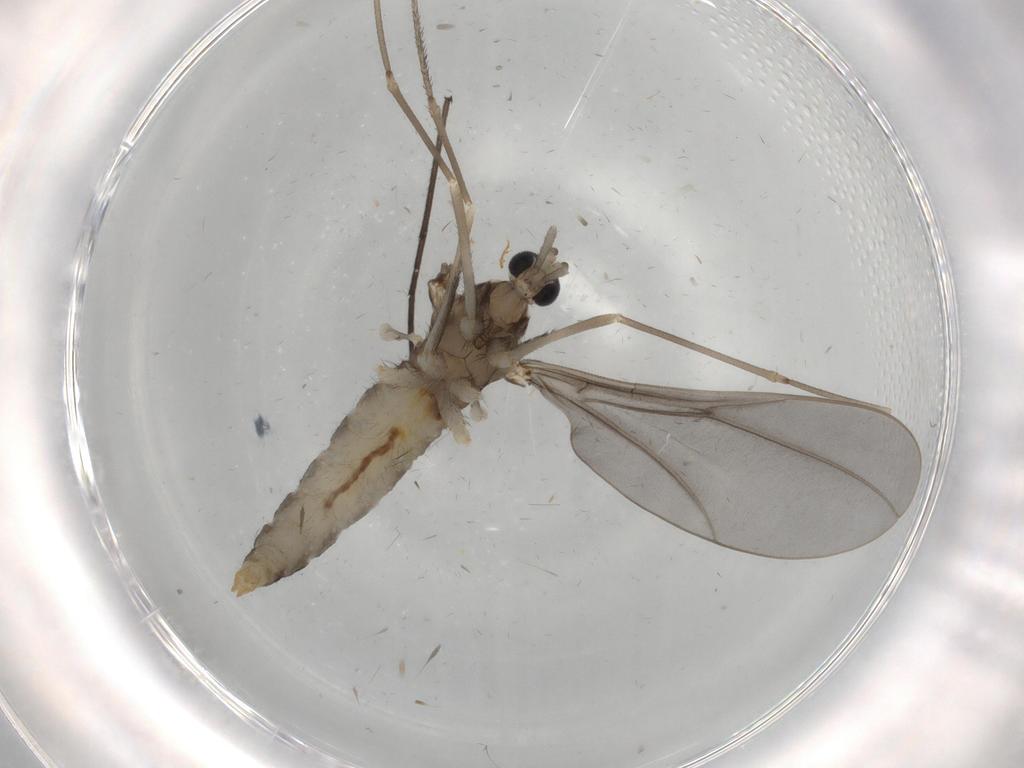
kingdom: Animalia
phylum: Arthropoda
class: Insecta
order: Diptera
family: Cecidomyiidae
